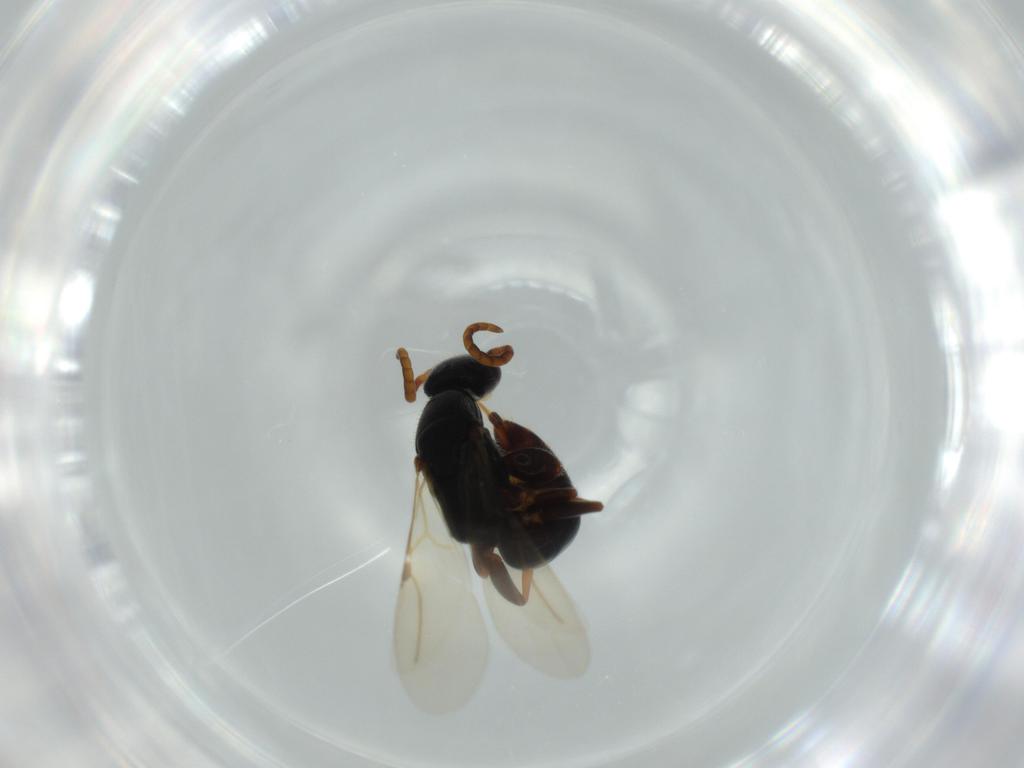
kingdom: Animalia
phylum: Arthropoda
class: Insecta
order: Hymenoptera
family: Bethylidae
